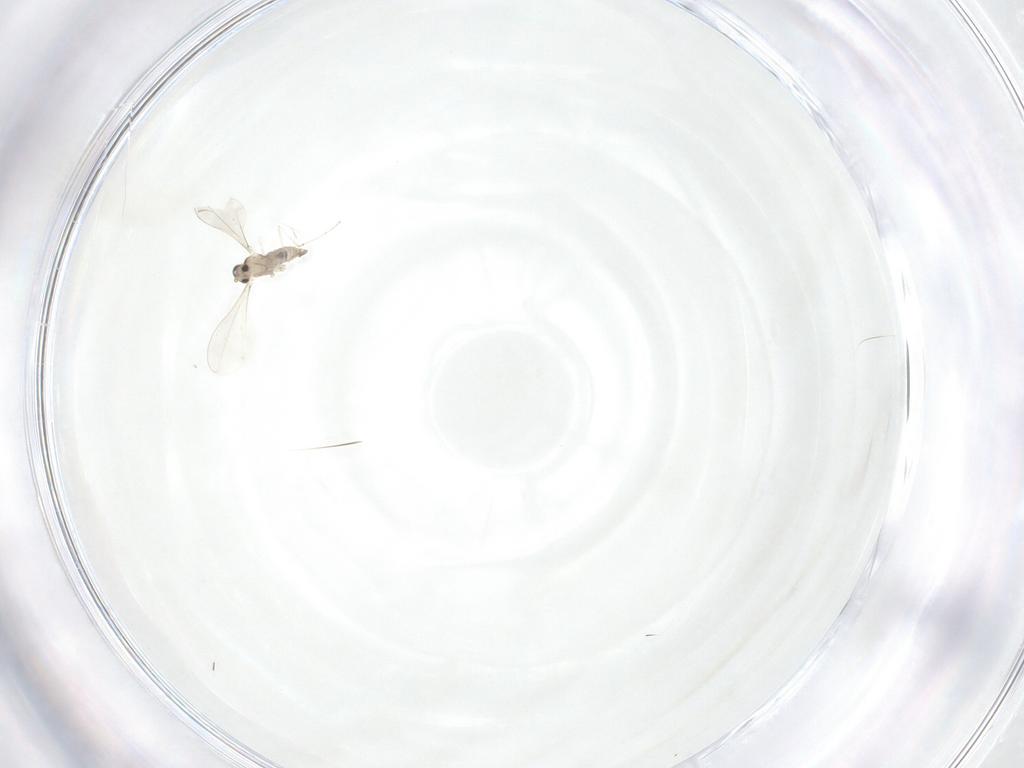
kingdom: Animalia
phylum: Arthropoda
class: Insecta
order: Diptera
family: Cecidomyiidae
